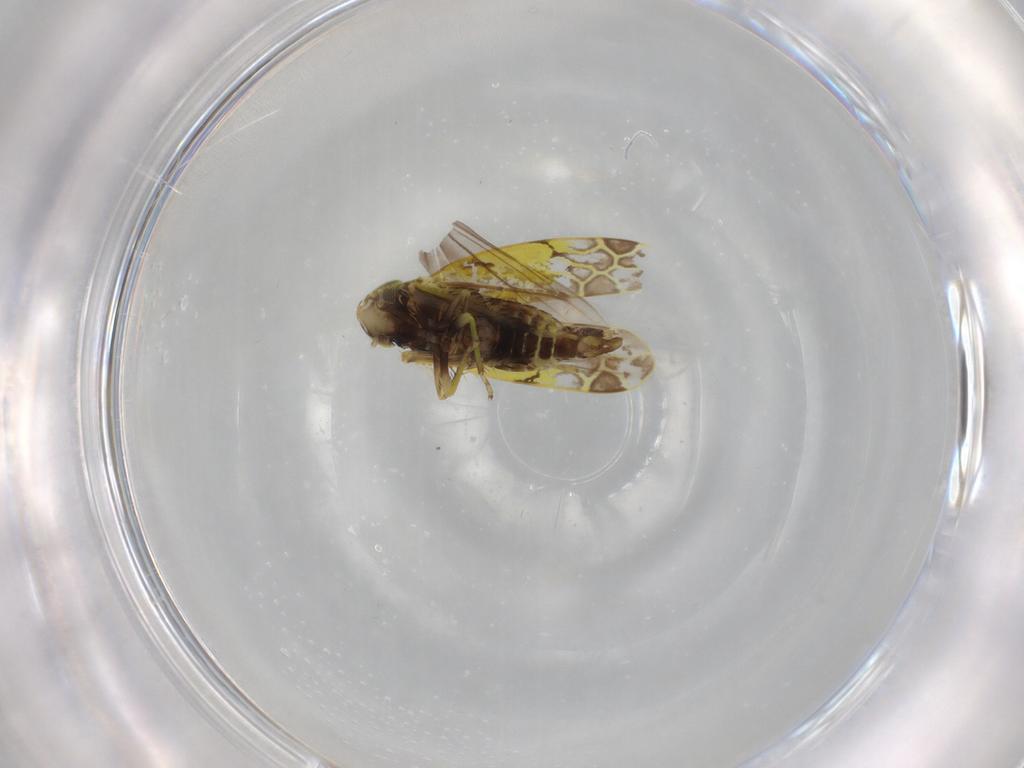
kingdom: Animalia
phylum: Arthropoda
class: Insecta
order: Hemiptera
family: Cicadellidae
